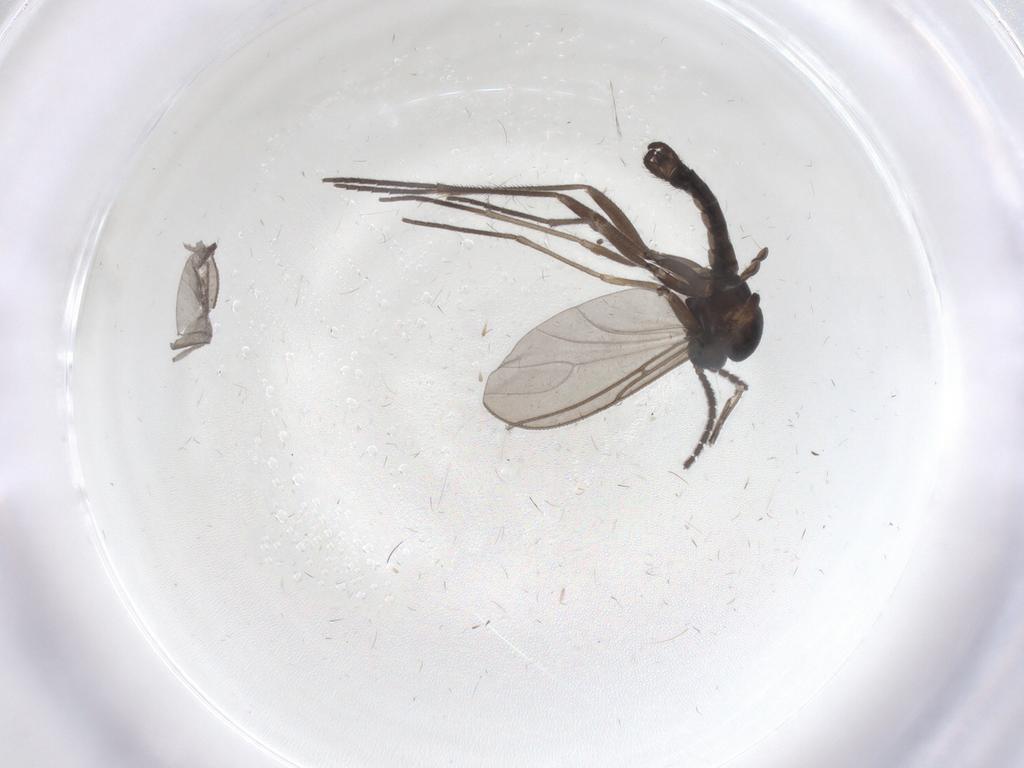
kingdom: Animalia
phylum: Arthropoda
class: Insecta
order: Diptera
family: Sciaridae
